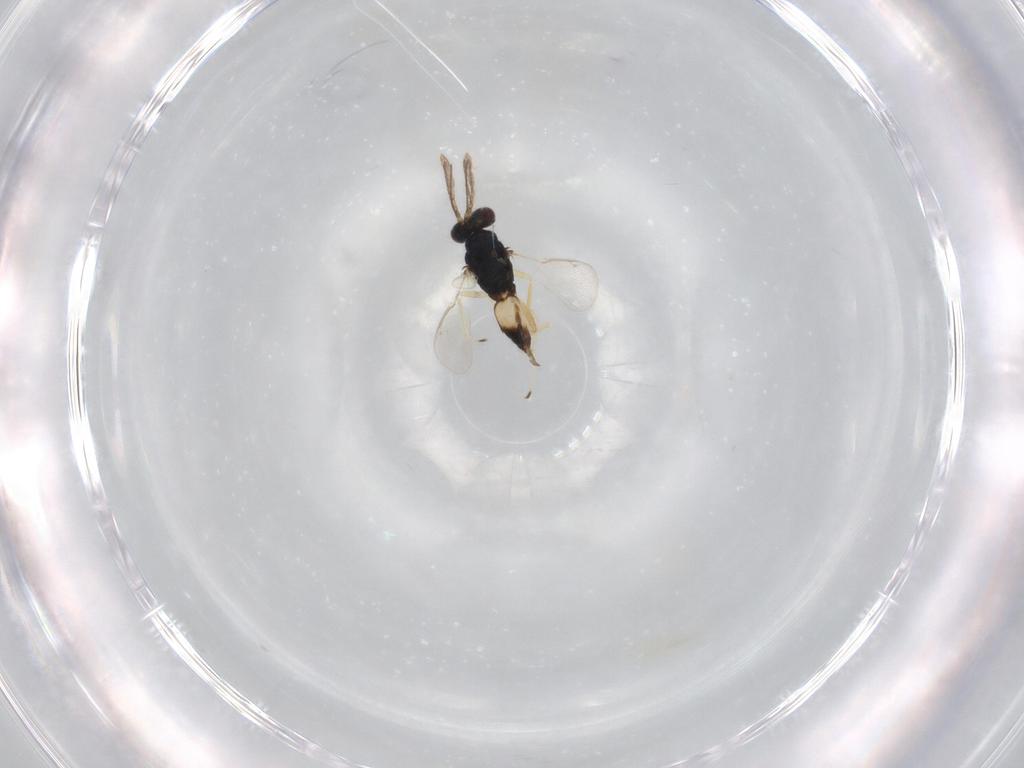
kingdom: Animalia
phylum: Arthropoda
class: Insecta
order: Hymenoptera
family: Eulophidae
